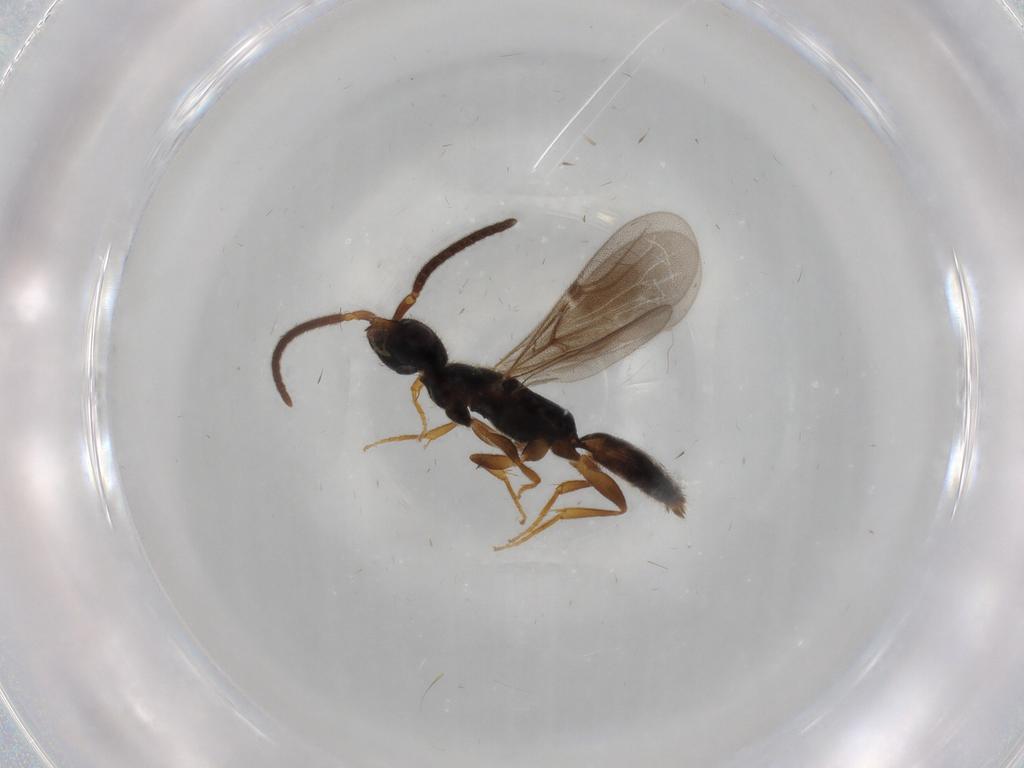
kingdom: Animalia
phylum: Arthropoda
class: Insecta
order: Hymenoptera
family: Bethylidae
